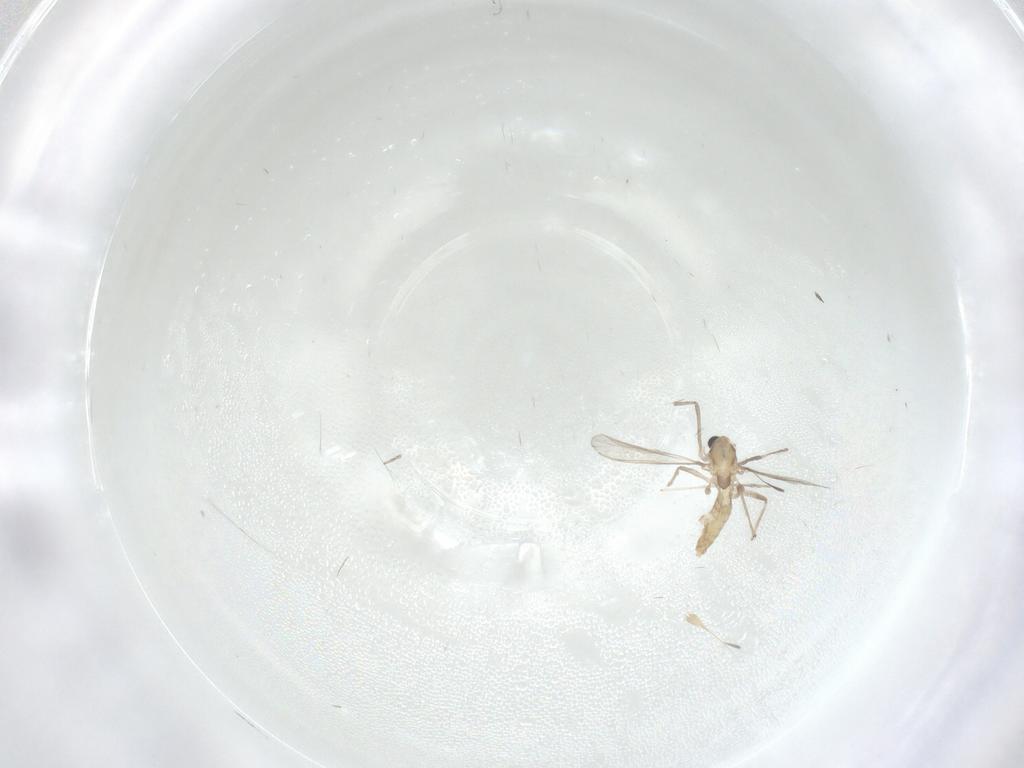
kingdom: Animalia
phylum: Arthropoda
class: Insecta
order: Diptera
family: Chironomidae
